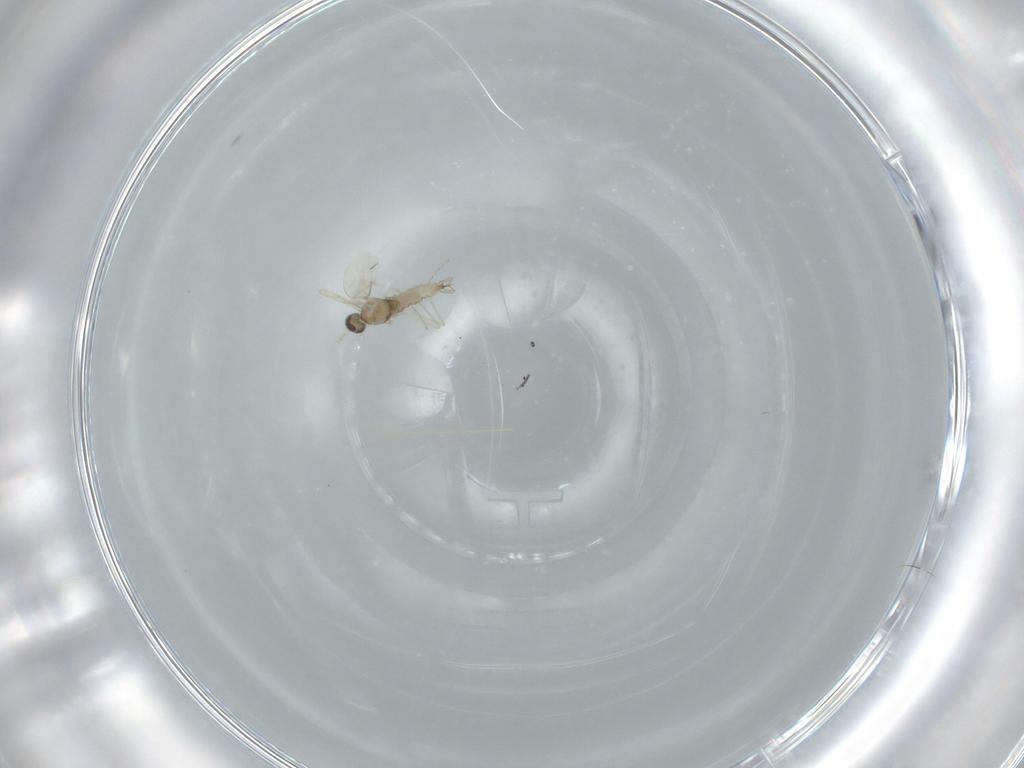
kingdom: Animalia
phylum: Arthropoda
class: Insecta
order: Diptera
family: Cecidomyiidae
